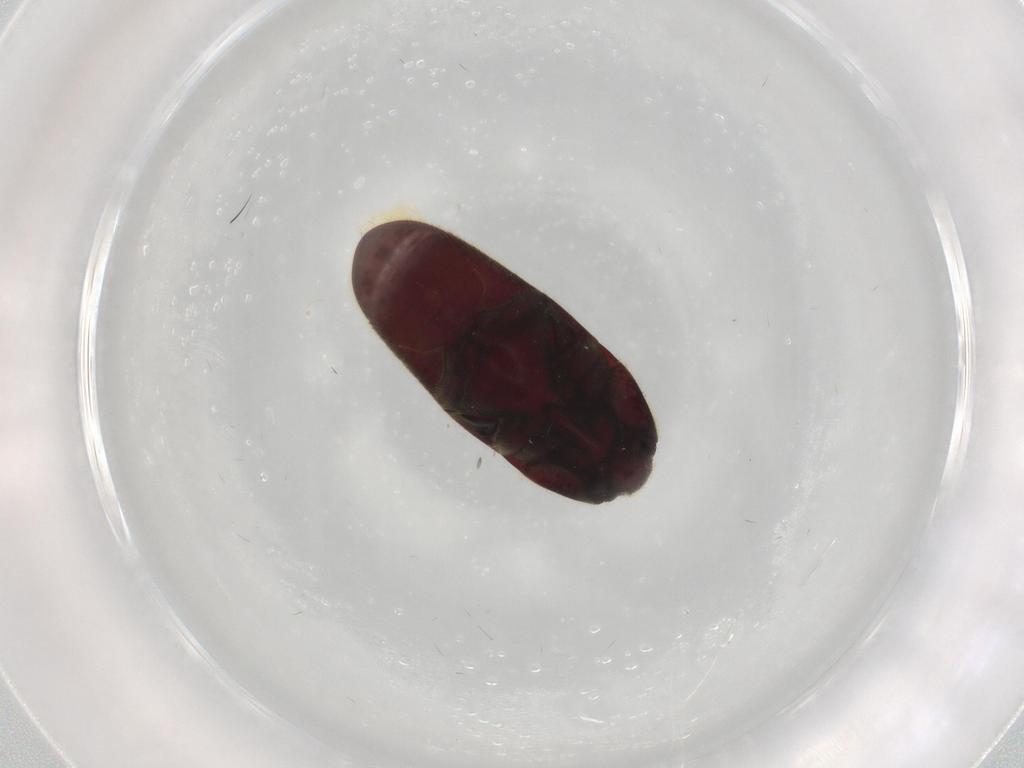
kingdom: Animalia
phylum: Arthropoda
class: Insecta
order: Coleoptera
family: Throscidae
